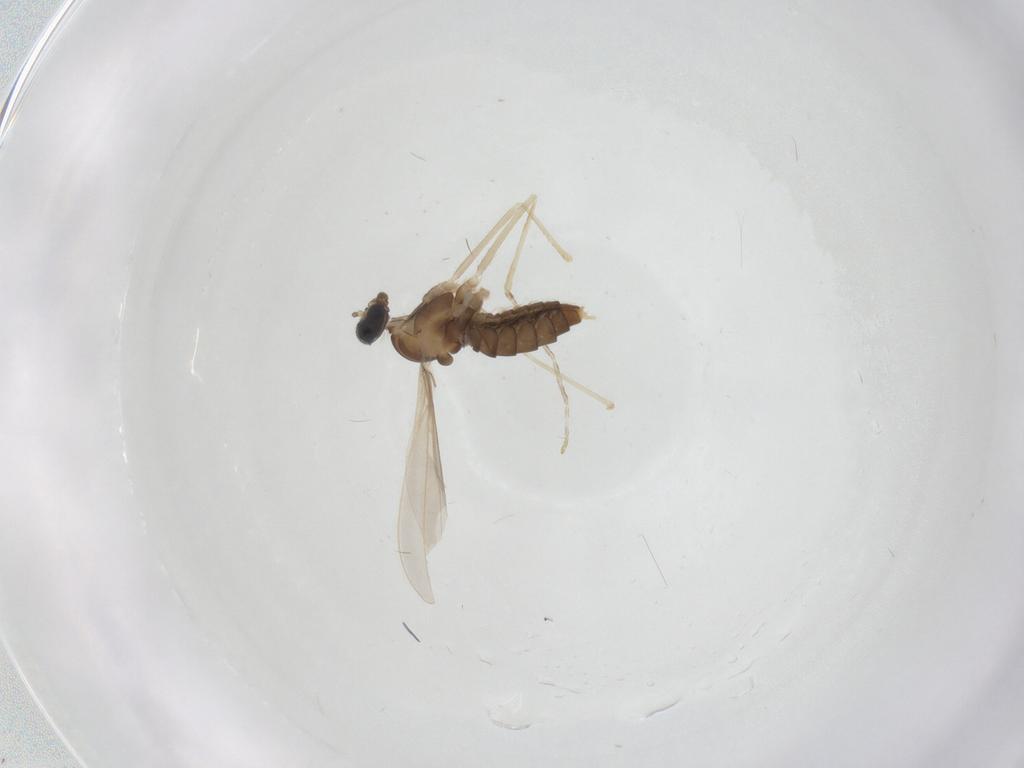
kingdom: Animalia
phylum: Arthropoda
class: Insecta
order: Diptera
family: Cecidomyiidae
